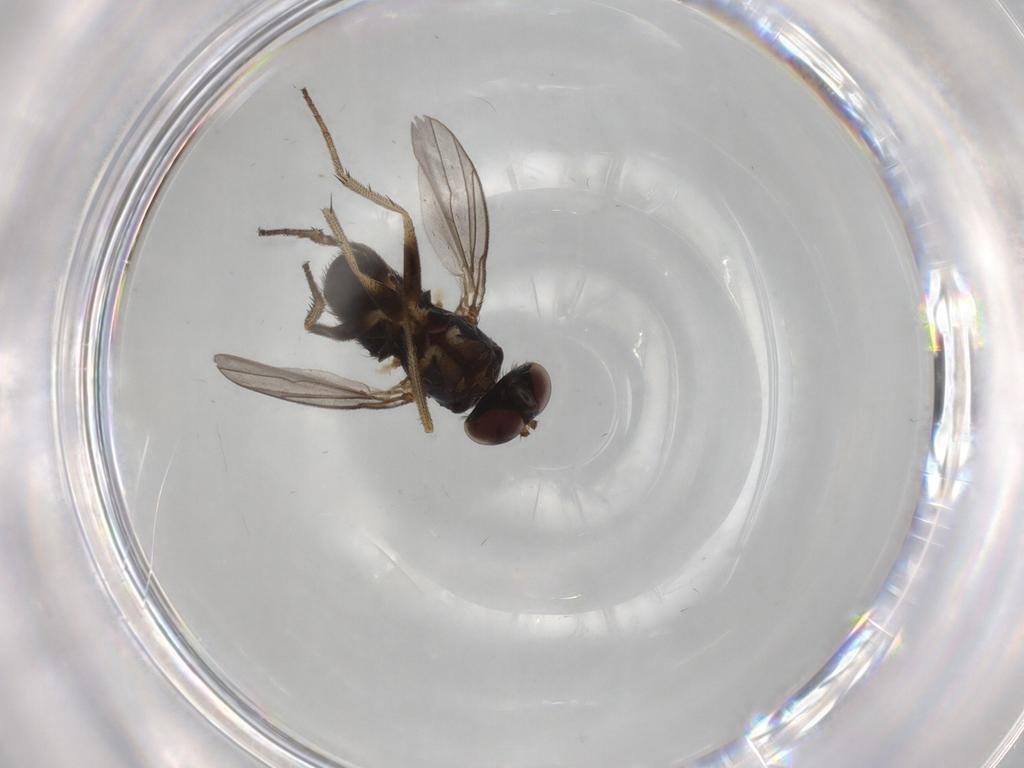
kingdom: Animalia
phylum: Arthropoda
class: Insecta
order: Diptera
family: Dolichopodidae
